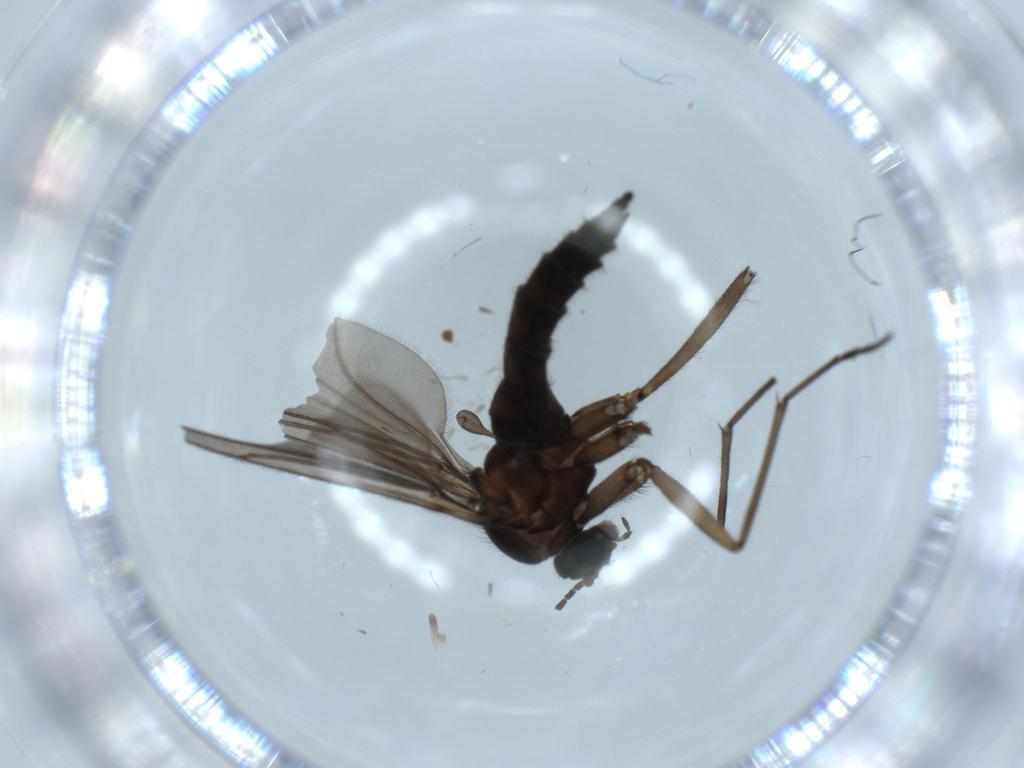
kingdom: Animalia
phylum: Arthropoda
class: Insecta
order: Diptera
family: Sciaridae
